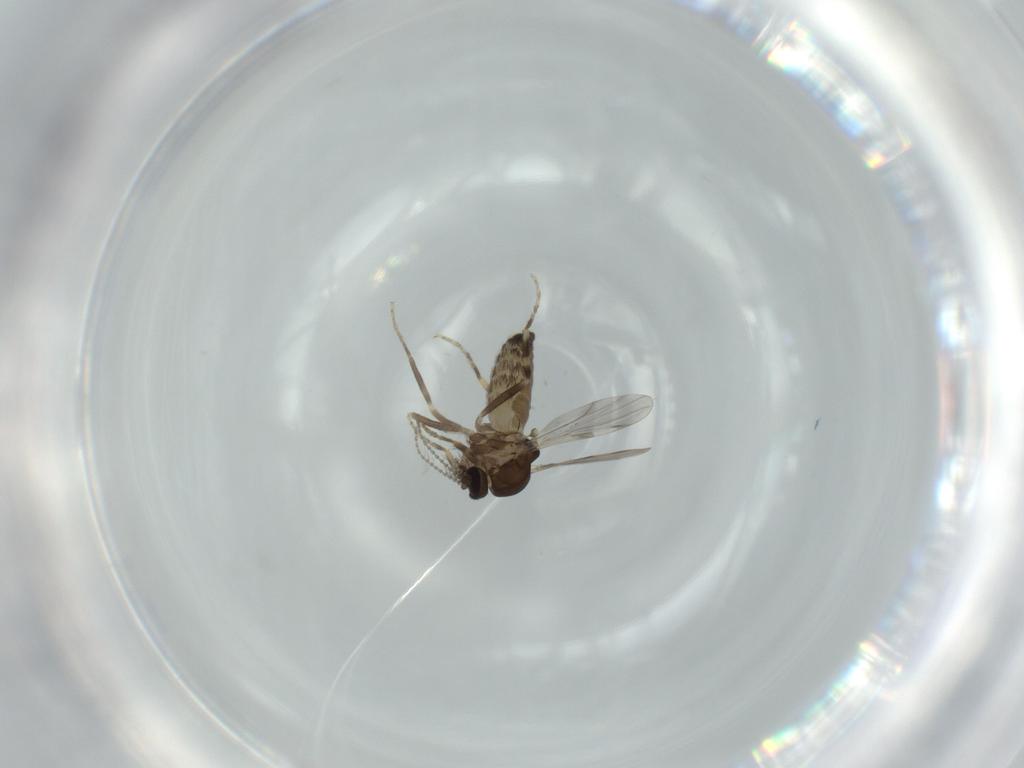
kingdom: Animalia
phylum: Arthropoda
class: Insecta
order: Diptera
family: Ceratopogonidae
